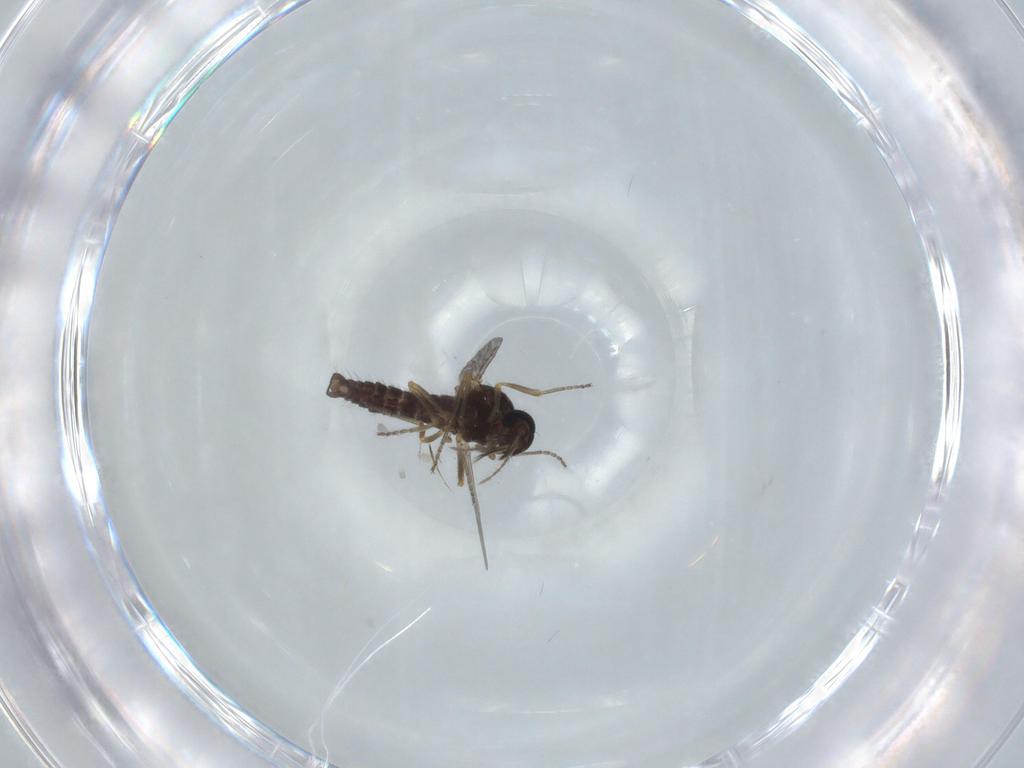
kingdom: Animalia
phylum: Arthropoda
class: Insecta
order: Diptera
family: Ceratopogonidae
